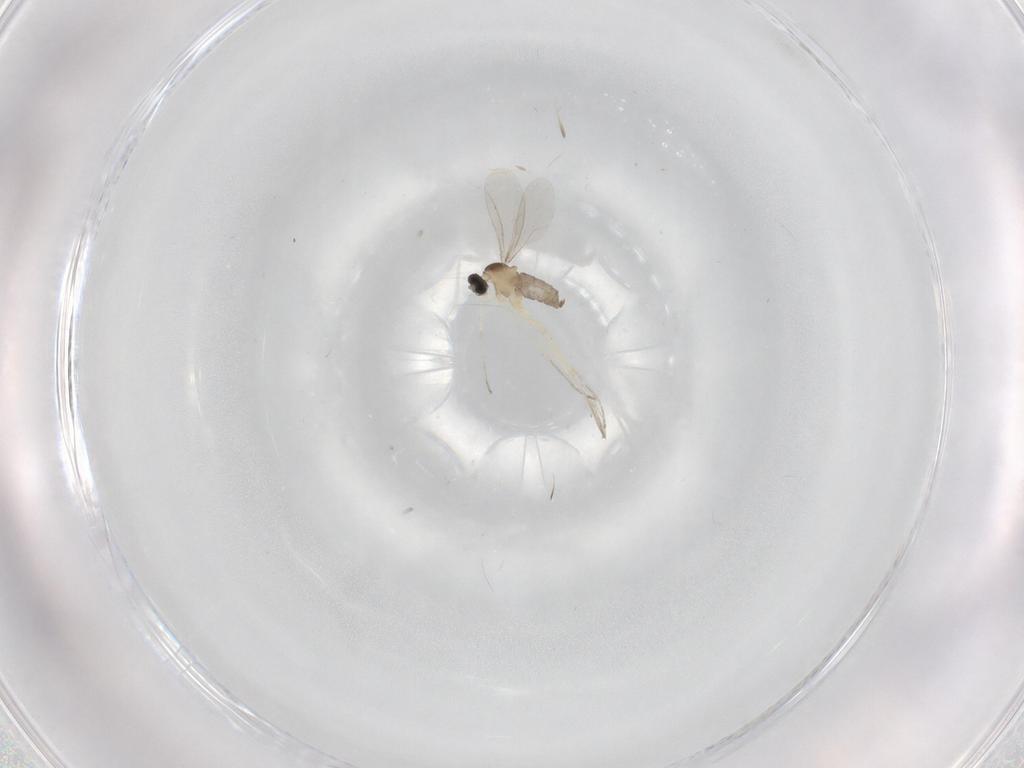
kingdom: Animalia
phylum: Arthropoda
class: Insecta
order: Diptera
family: Cecidomyiidae
